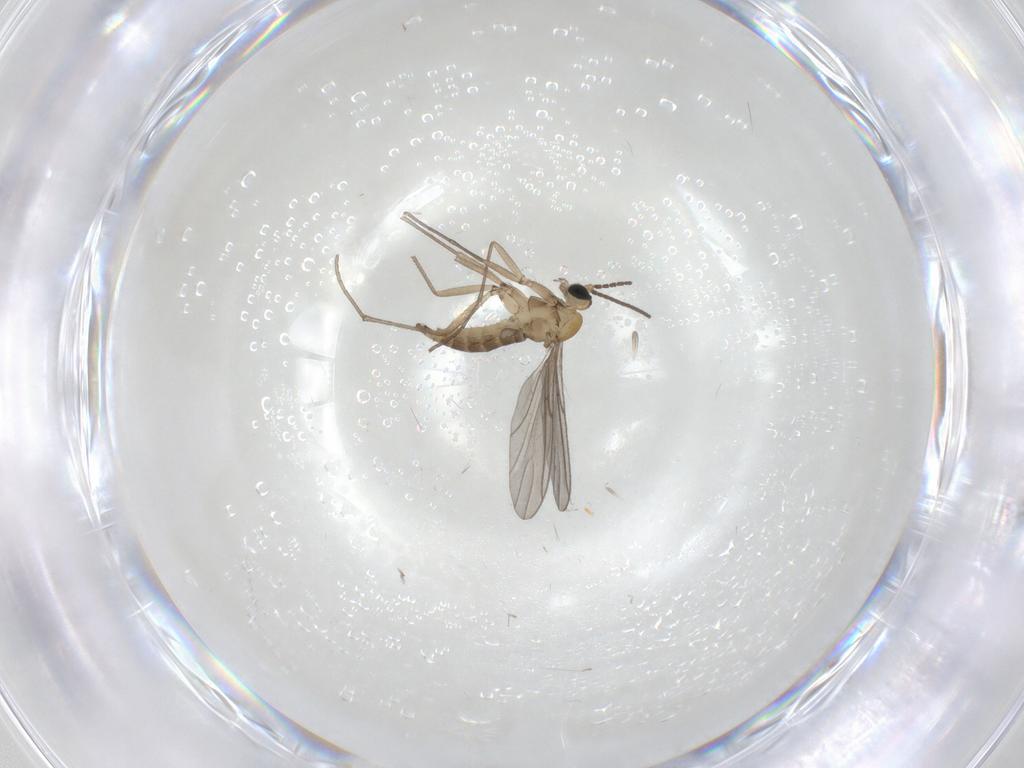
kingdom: Animalia
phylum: Arthropoda
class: Insecta
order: Diptera
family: Sciaridae
